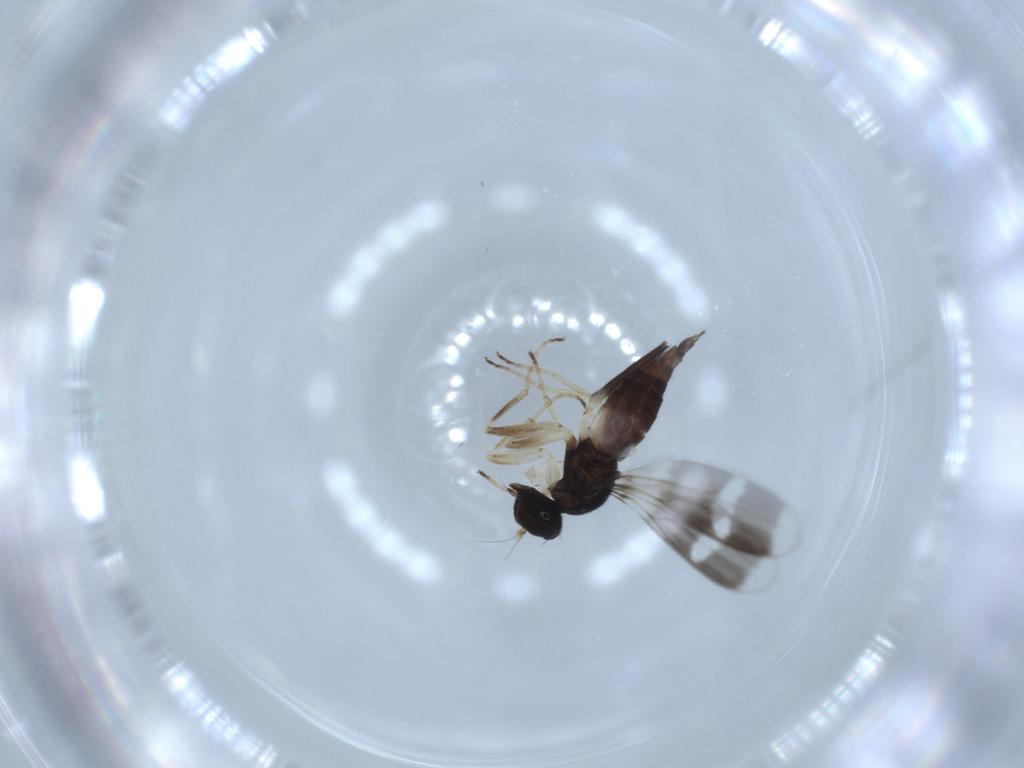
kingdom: Animalia
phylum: Arthropoda
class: Insecta
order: Diptera
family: Hybotidae
